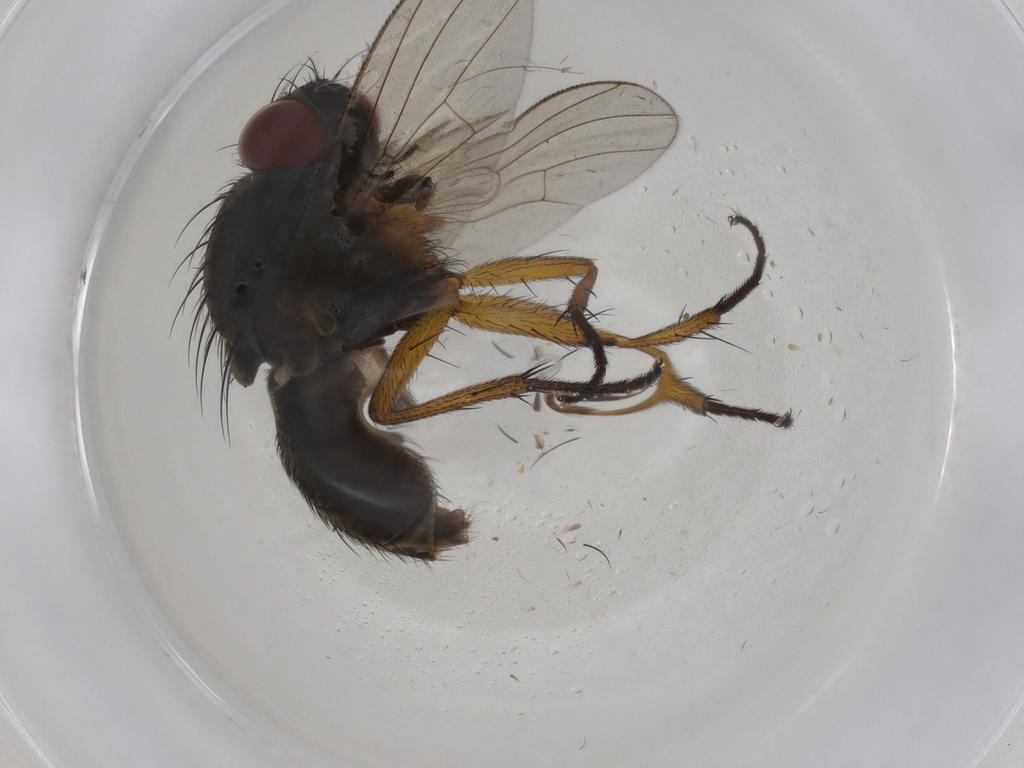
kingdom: Animalia
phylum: Arthropoda
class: Insecta
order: Diptera
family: Muscidae
